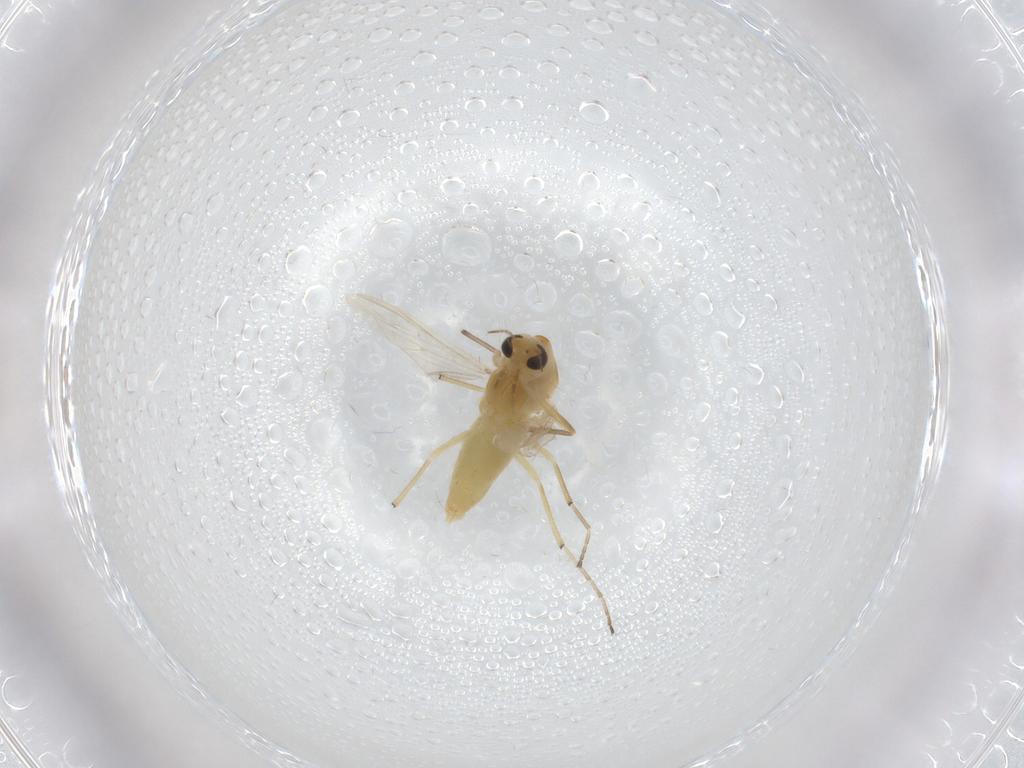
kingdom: Animalia
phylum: Arthropoda
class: Insecta
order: Diptera
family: Chironomidae
